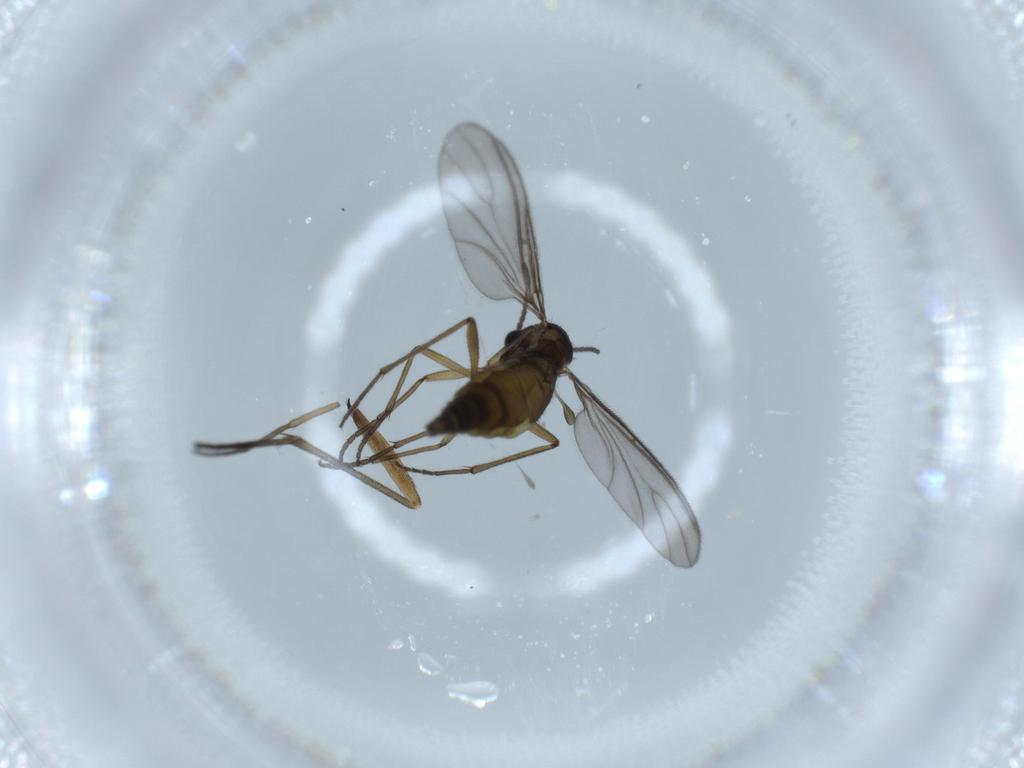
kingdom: Animalia
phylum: Arthropoda
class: Insecta
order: Diptera
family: Sciaridae
